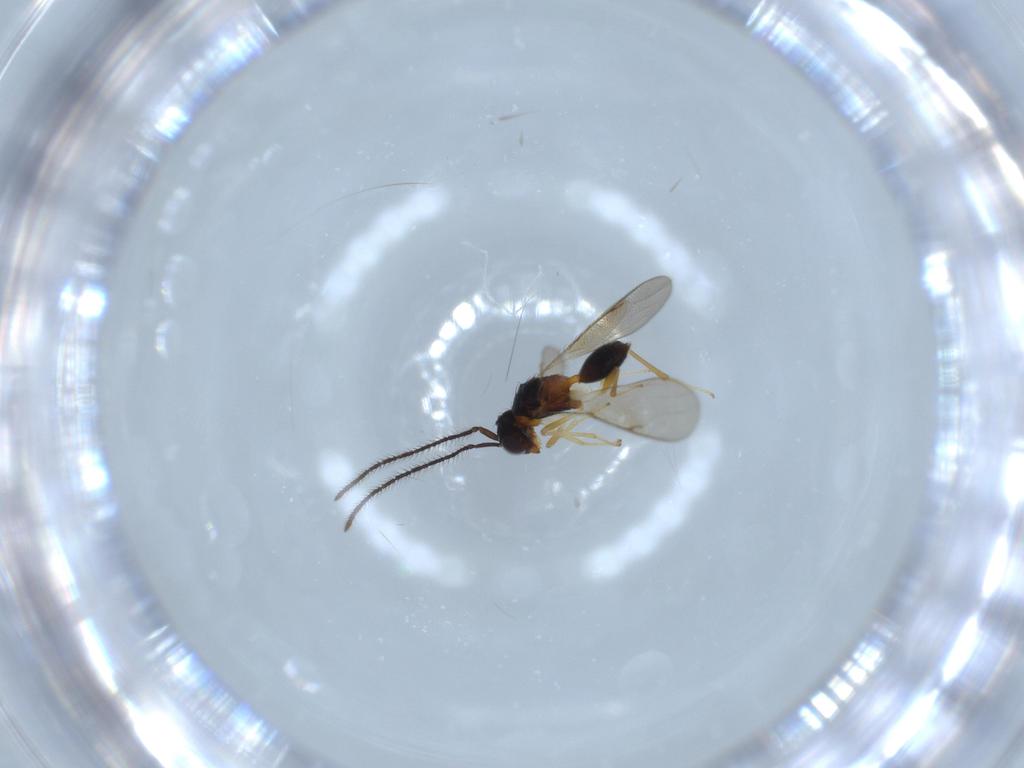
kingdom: Animalia
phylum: Arthropoda
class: Insecta
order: Hymenoptera
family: Diparidae
